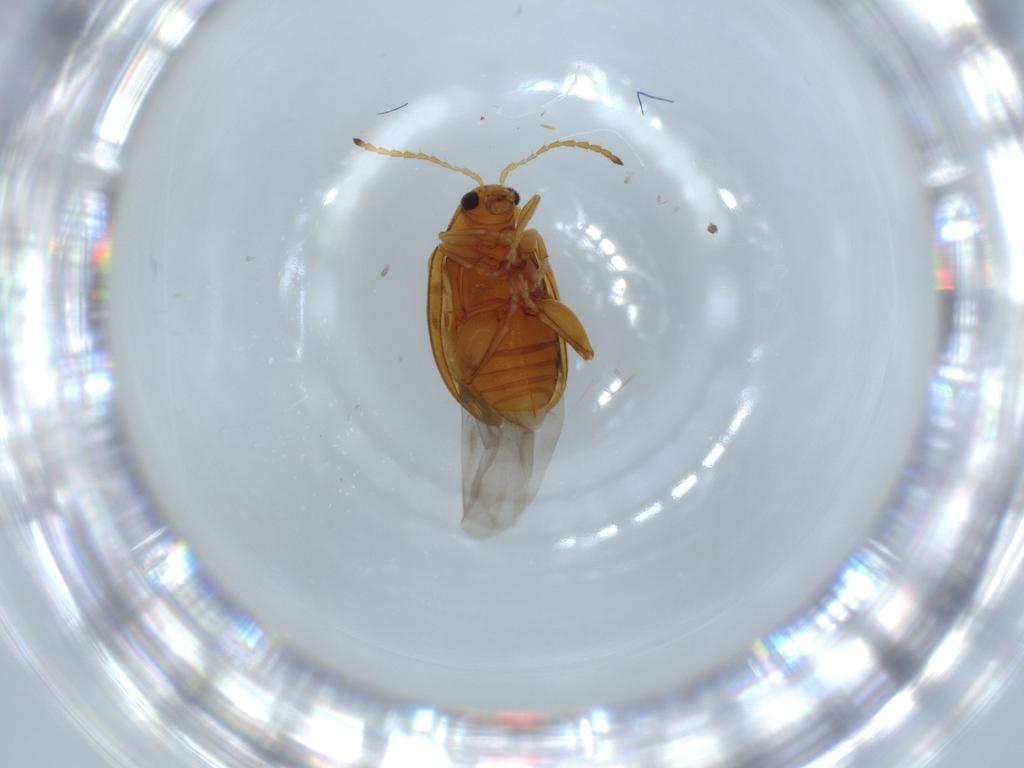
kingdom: Animalia
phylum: Arthropoda
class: Insecta
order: Coleoptera
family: Chrysomelidae
